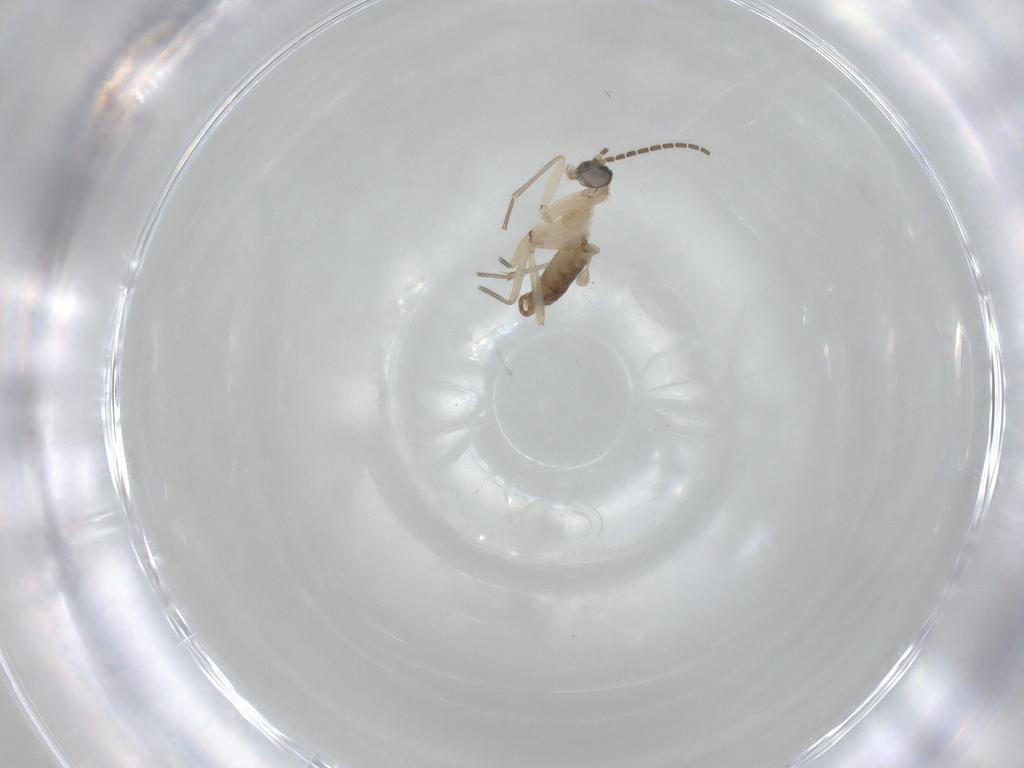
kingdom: Animalia
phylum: Arthropoda
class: Insecta
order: Diptera
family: Sciaridae
